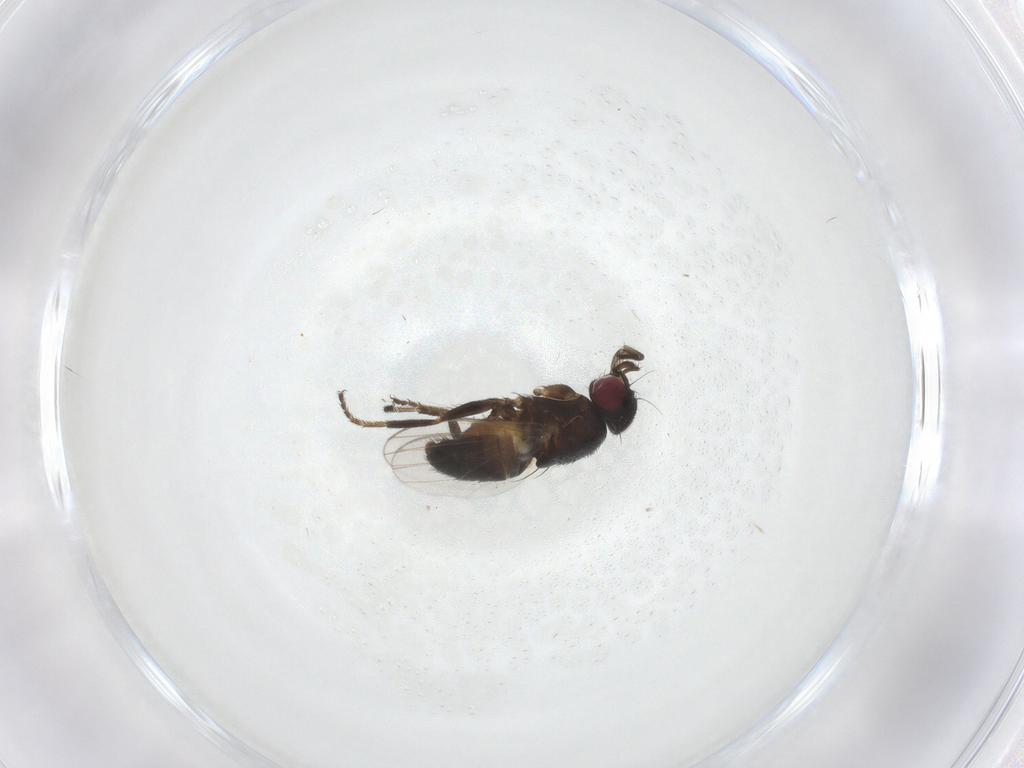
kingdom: Animalia
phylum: Arthropoda
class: Insecta
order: Diptera
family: Milichiidae
